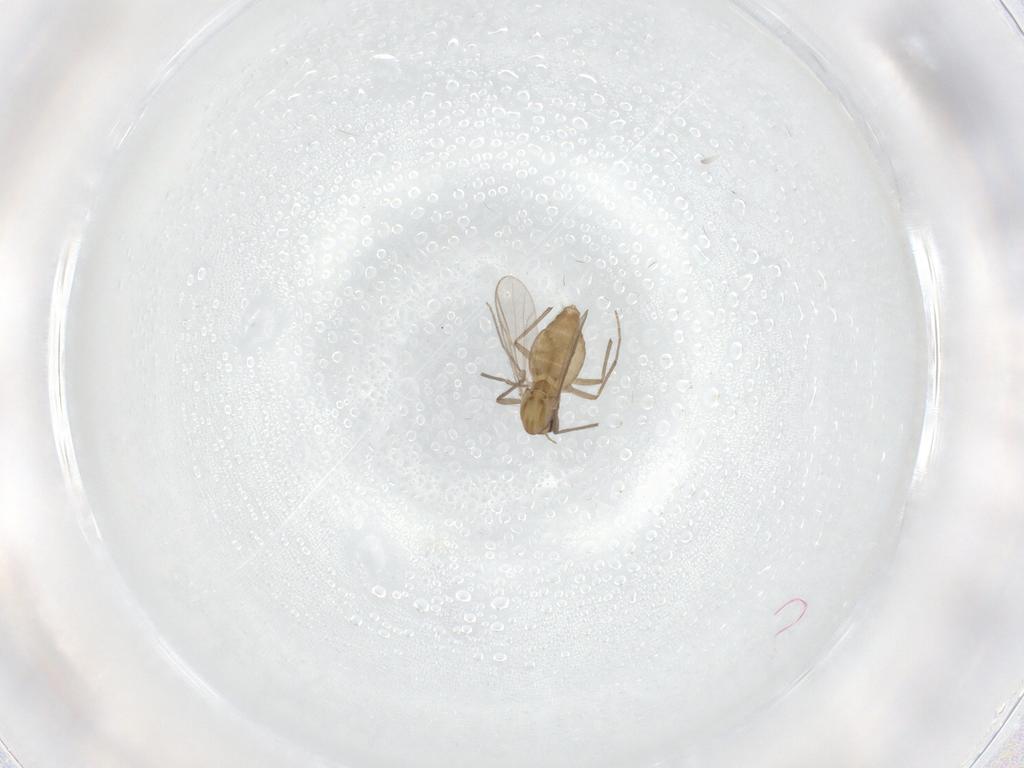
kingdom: Animalia
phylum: Arthropoda
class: Insecta
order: Diptera
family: Chironomidae
